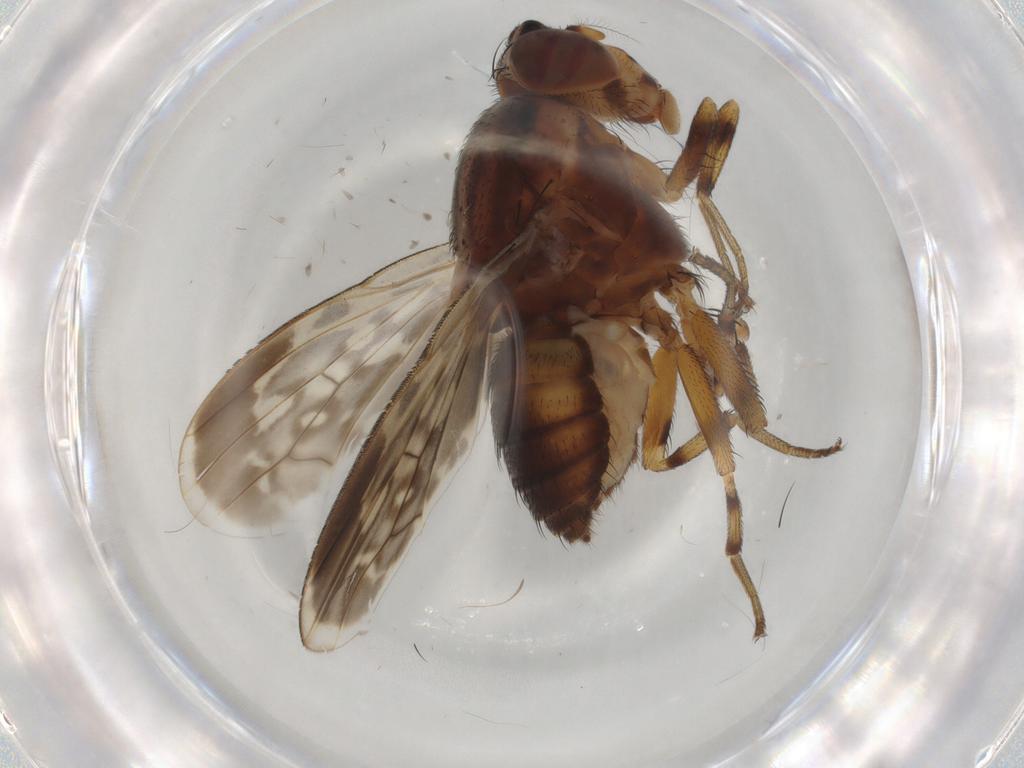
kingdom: Animalia
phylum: Arthropoda
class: Insecta
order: Diptera
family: Cecidomyiidae
